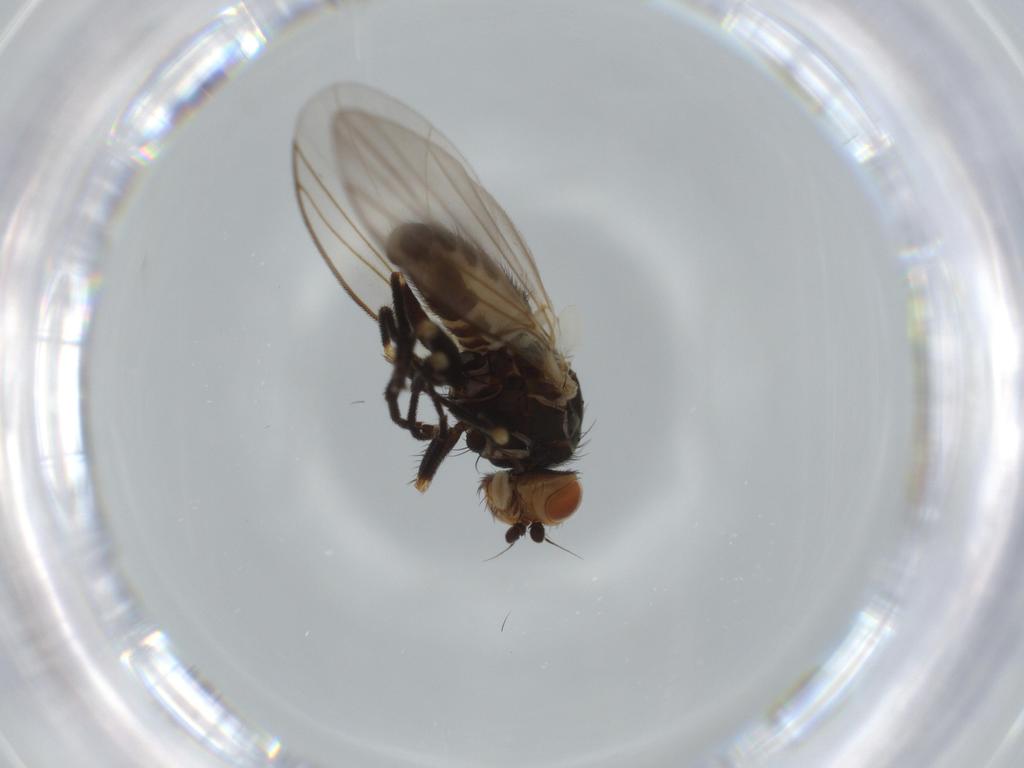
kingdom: Animalia
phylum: Arthropoda
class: Insecta
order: Diptera
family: Agromyzidae
